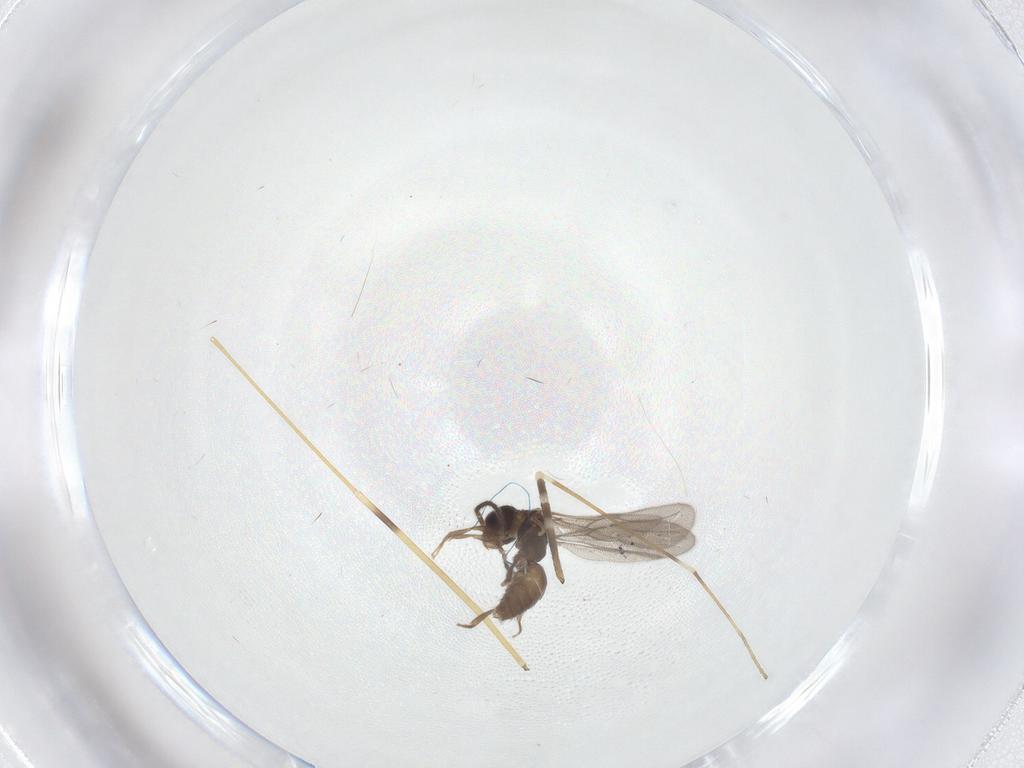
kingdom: Animalia
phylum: Arthropoda
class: Insecta
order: Diptera
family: Limoniidae
